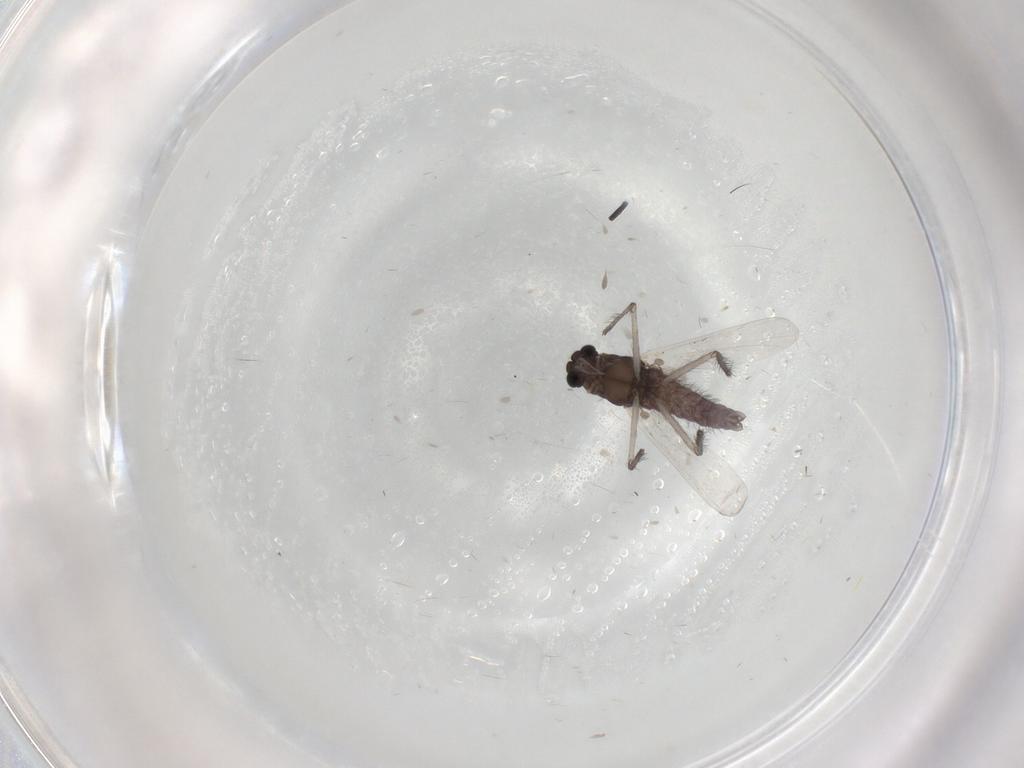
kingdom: Animalia
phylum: Arthropoda
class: Insecta
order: Diptera
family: Chironomidae
